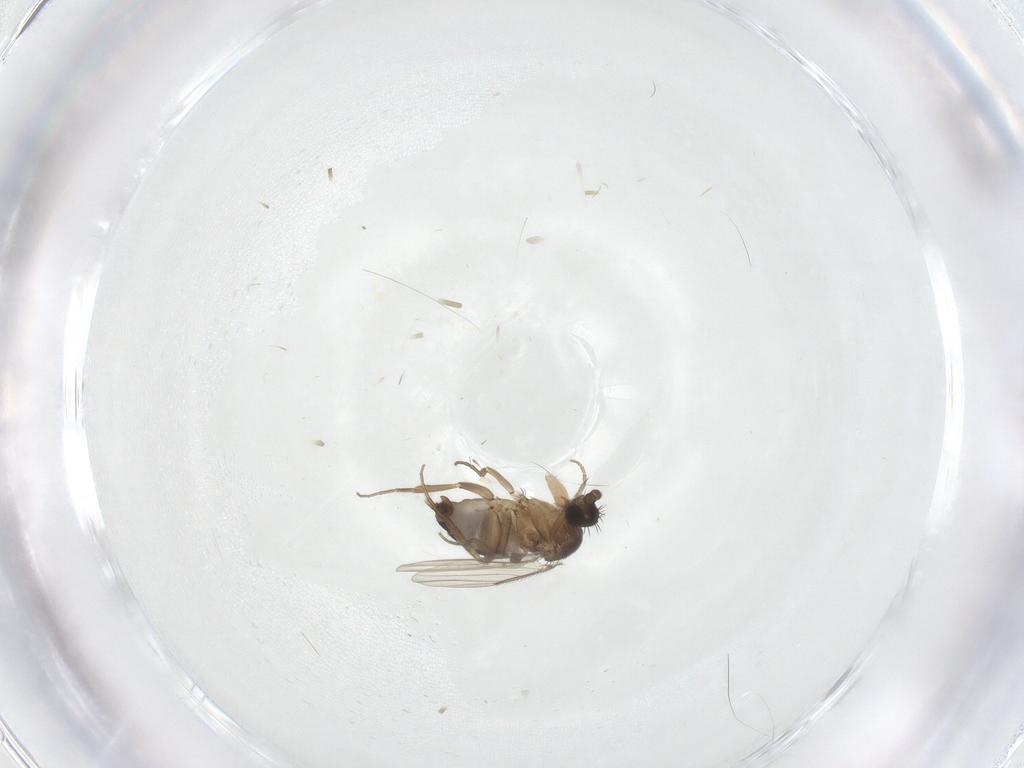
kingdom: Animalia
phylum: Arthropoda
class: Insecta
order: Diptera
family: Phoridae
